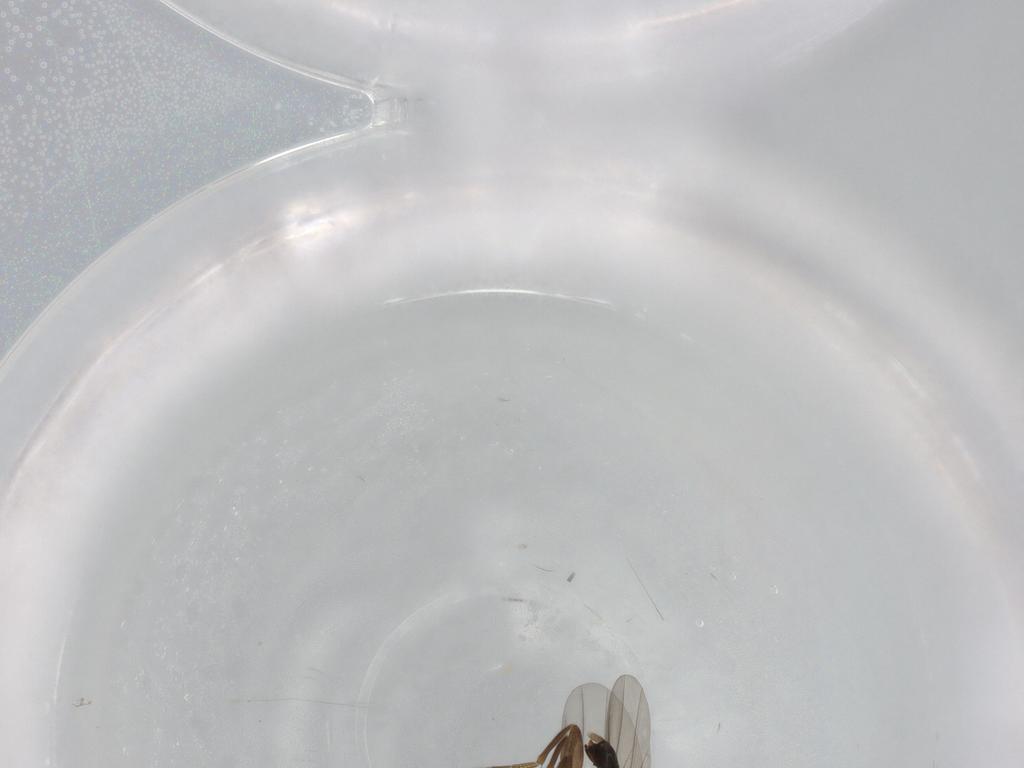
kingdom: Animalia
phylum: Arthropoda
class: Insecta
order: Diptera
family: Phoridae
